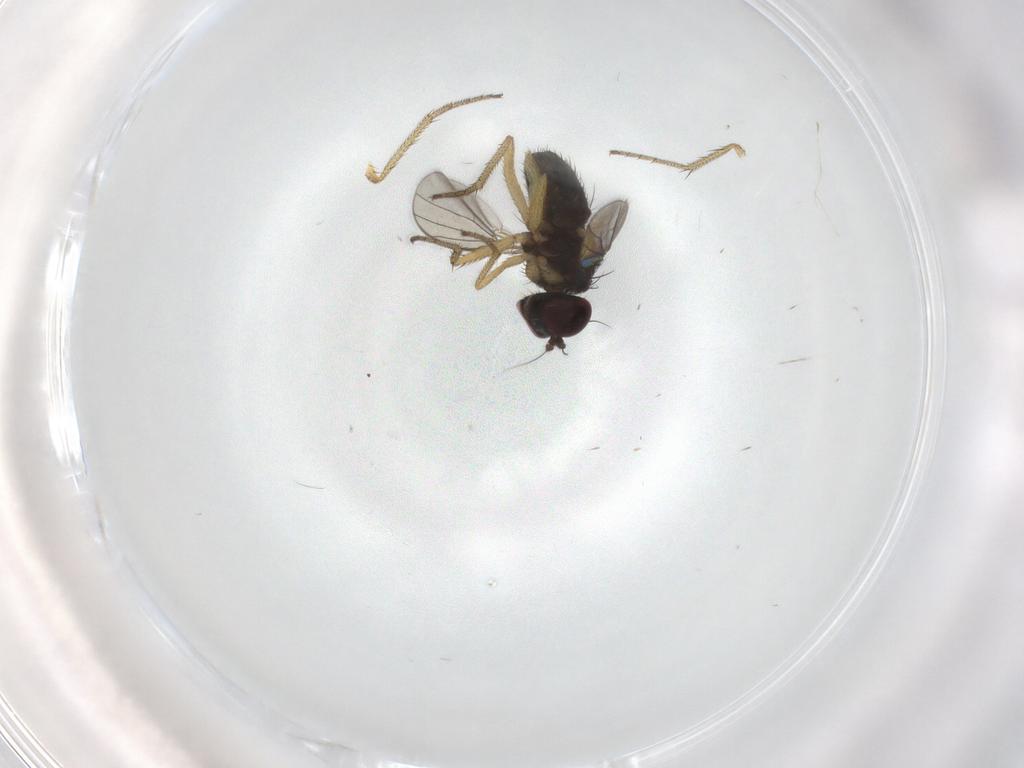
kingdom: Animalia
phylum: Arthropoda
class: Insecta
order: Diptera
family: Dolichopodidae
